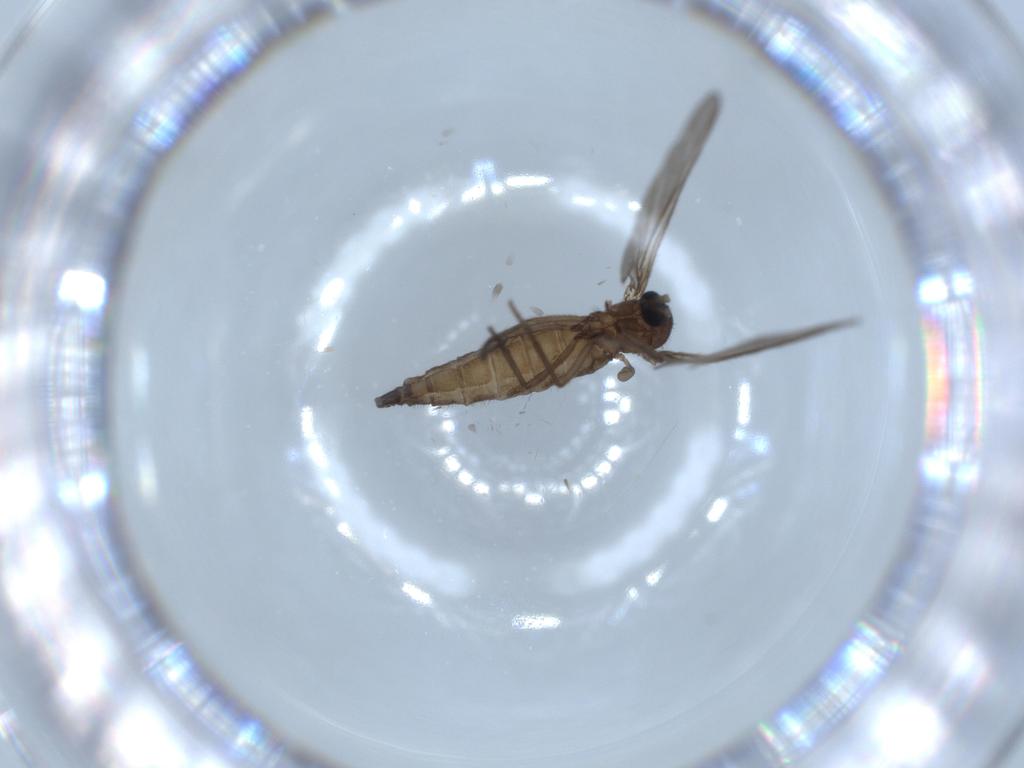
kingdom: Animalia
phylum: Arthropoda
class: Insecta
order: Diptera
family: Sciaridae
